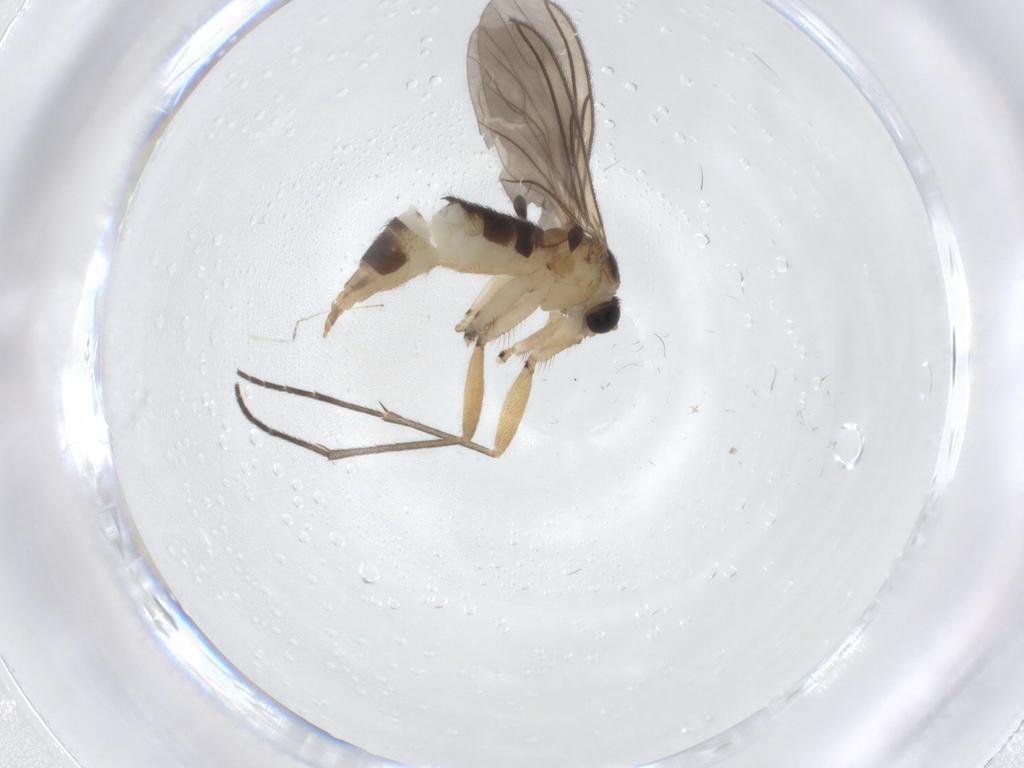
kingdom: Animalia
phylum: Arthropoda
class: Insecta
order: Diptera
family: Sciaridae
